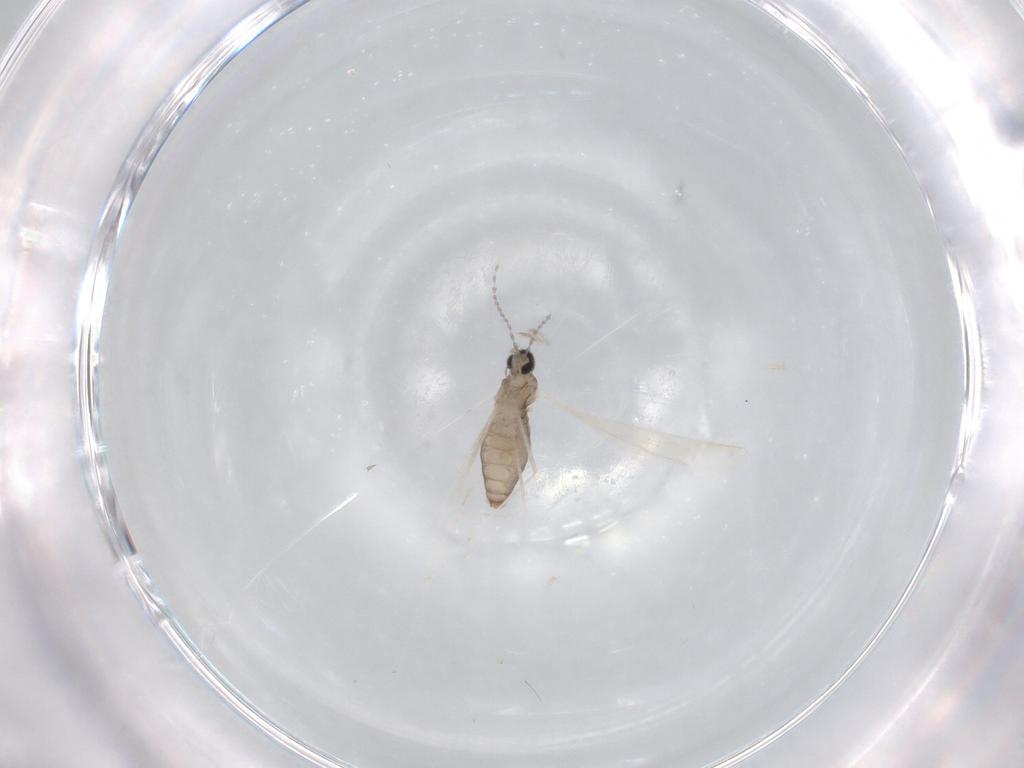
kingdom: Animalia
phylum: Arthropoda
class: Insecta
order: Diptera
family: Cecidomyiidae
